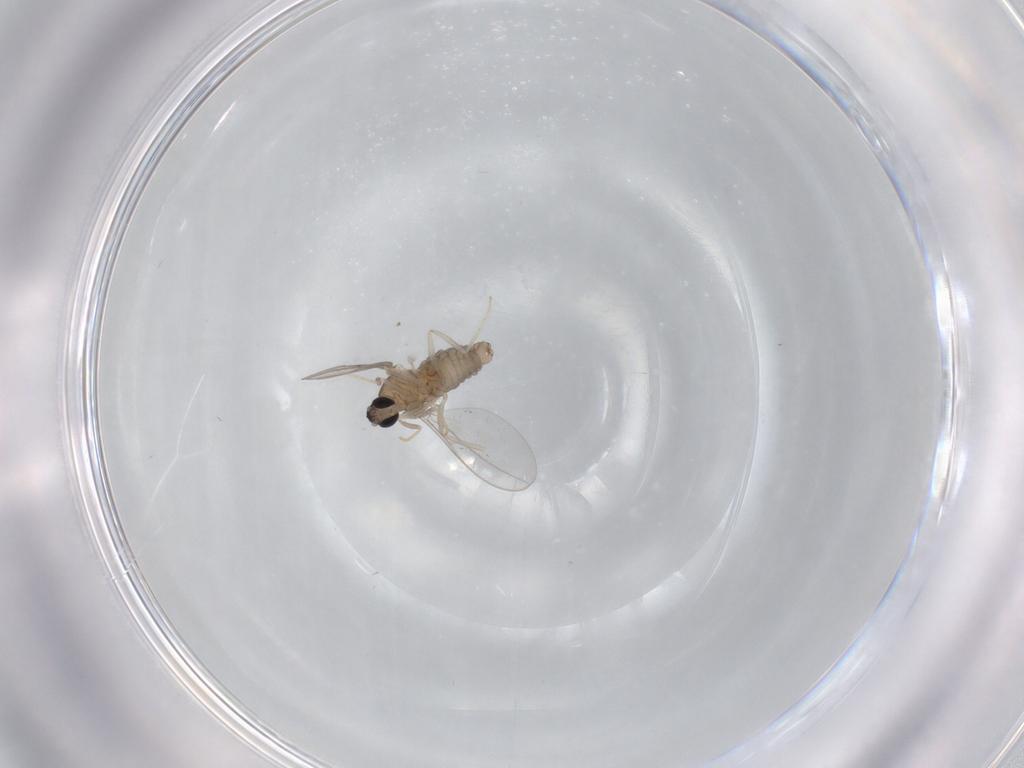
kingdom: Animalia
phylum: Arthropoda
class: Insecta
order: Diptera
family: Cecidomyiidae
